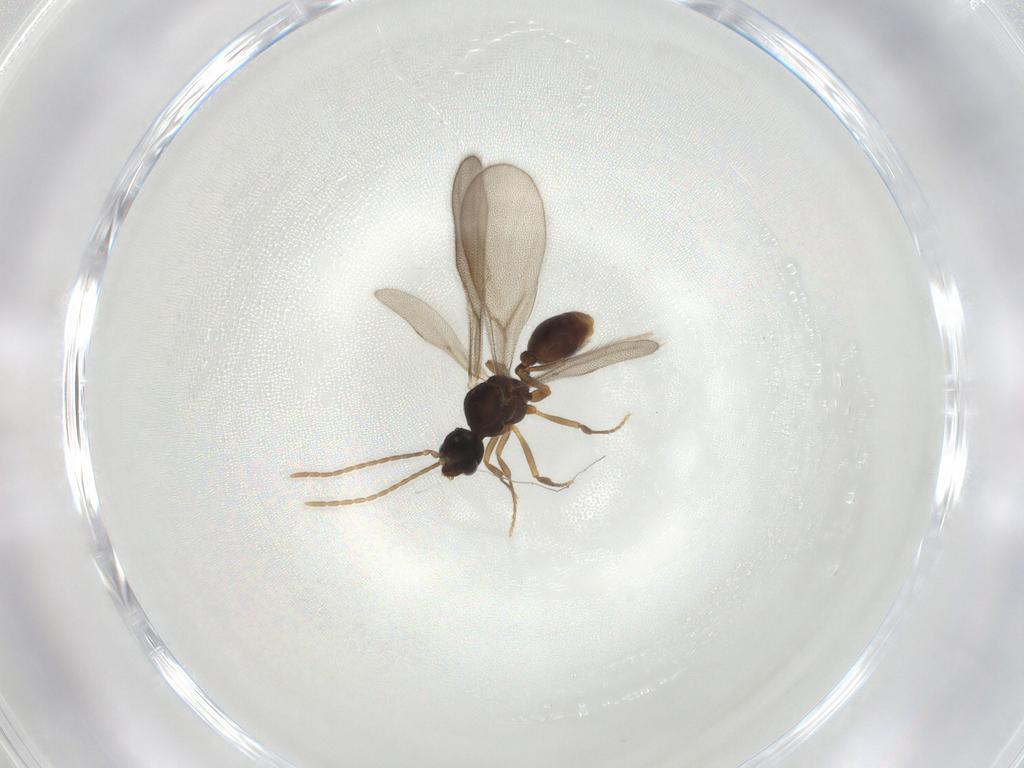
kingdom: Animalia
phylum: Arthropoda
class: Insecta
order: Hymenoptera
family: Formicidae
